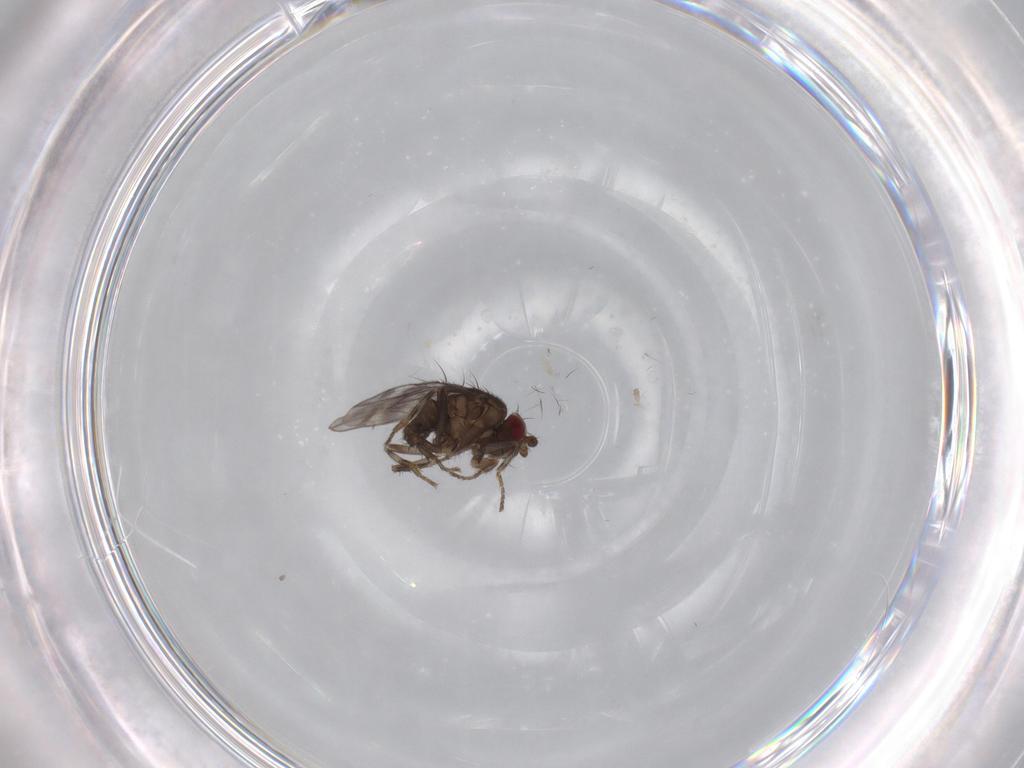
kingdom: Animalia
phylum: Arthropoda
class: Insecta
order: Diptera
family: Sphaeroceridae
